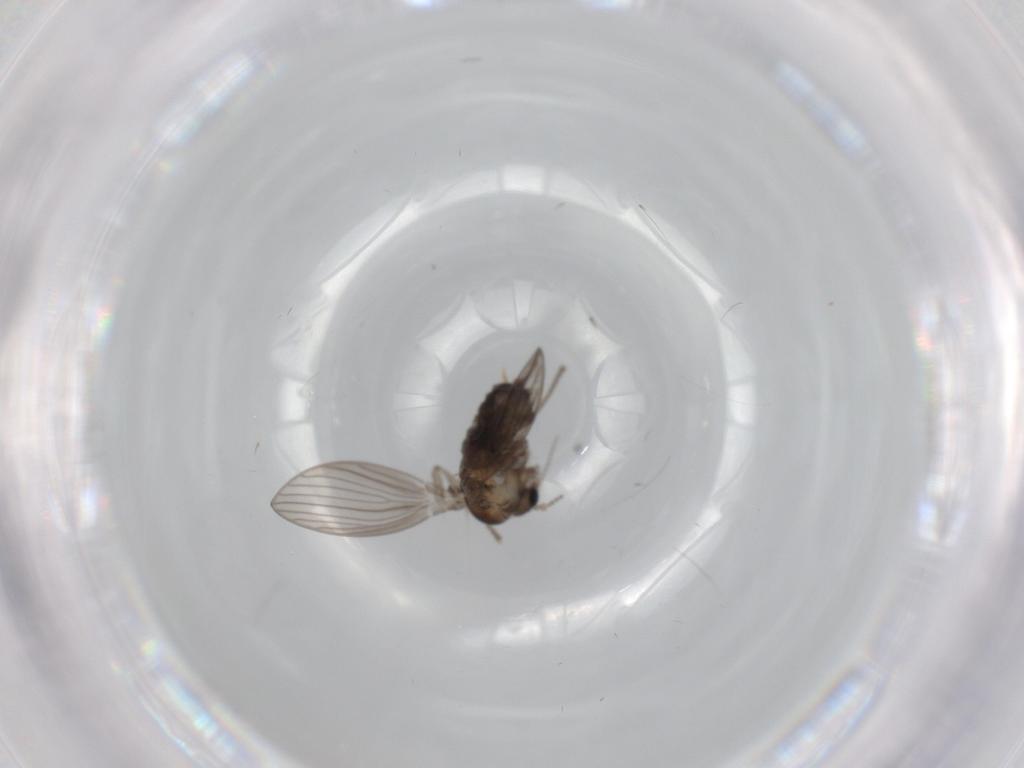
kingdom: Animalia
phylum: Arthropoda
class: Insecta
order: Diptera
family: Psychodidae
